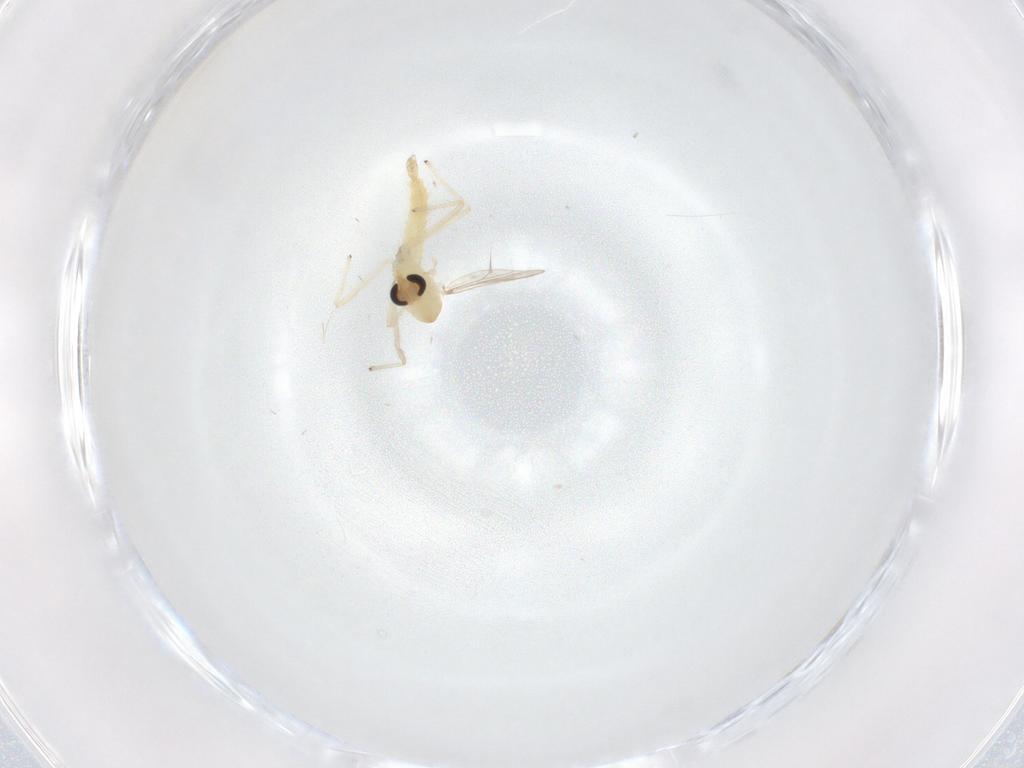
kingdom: Animalia
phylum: Arthropoda
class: Insecta
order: Diptera
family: Chironomidae
